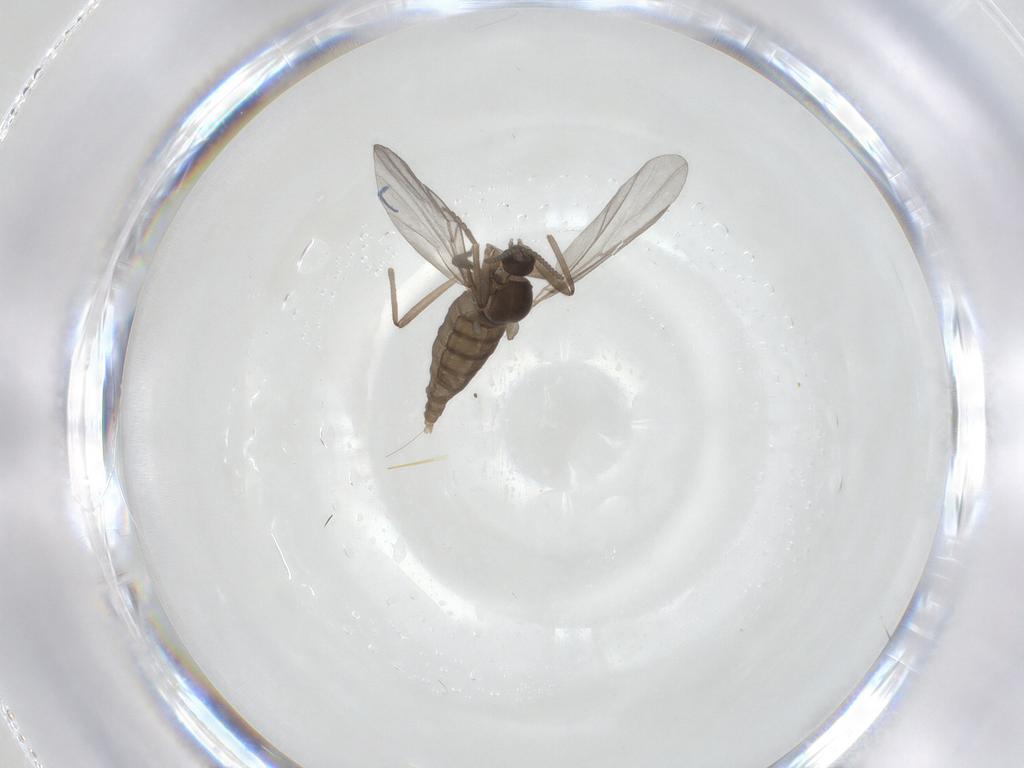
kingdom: Animalia
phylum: Arthropoda
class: Insecta
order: Diptera
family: Cecidomyiidae
